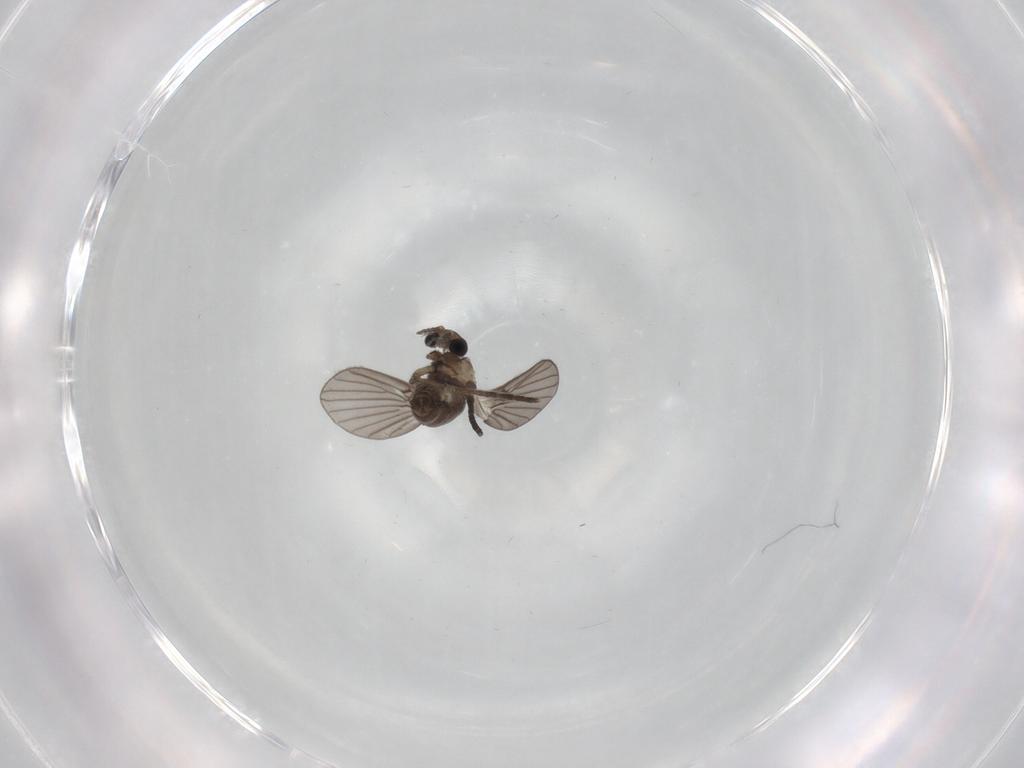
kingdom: Animalia
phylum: Arthropoda
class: Insecta
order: Diptera
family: Psychodidae
